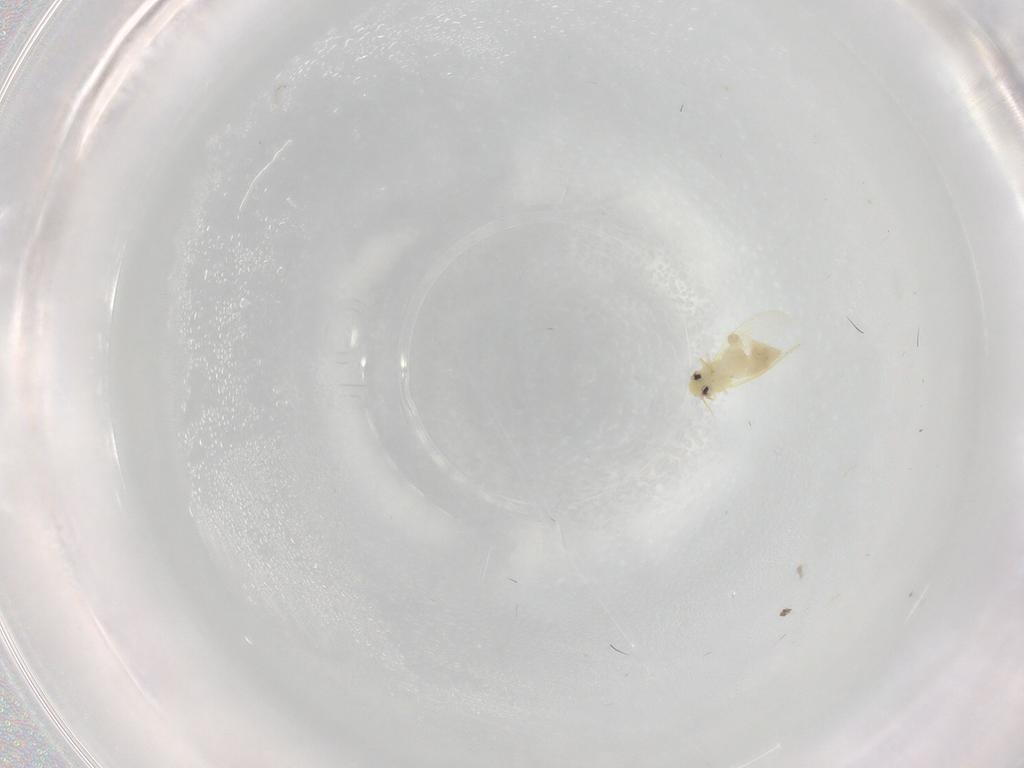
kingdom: Animalia
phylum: Arthropoda
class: Insecta
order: Hemiptera
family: Aleyrodidae
